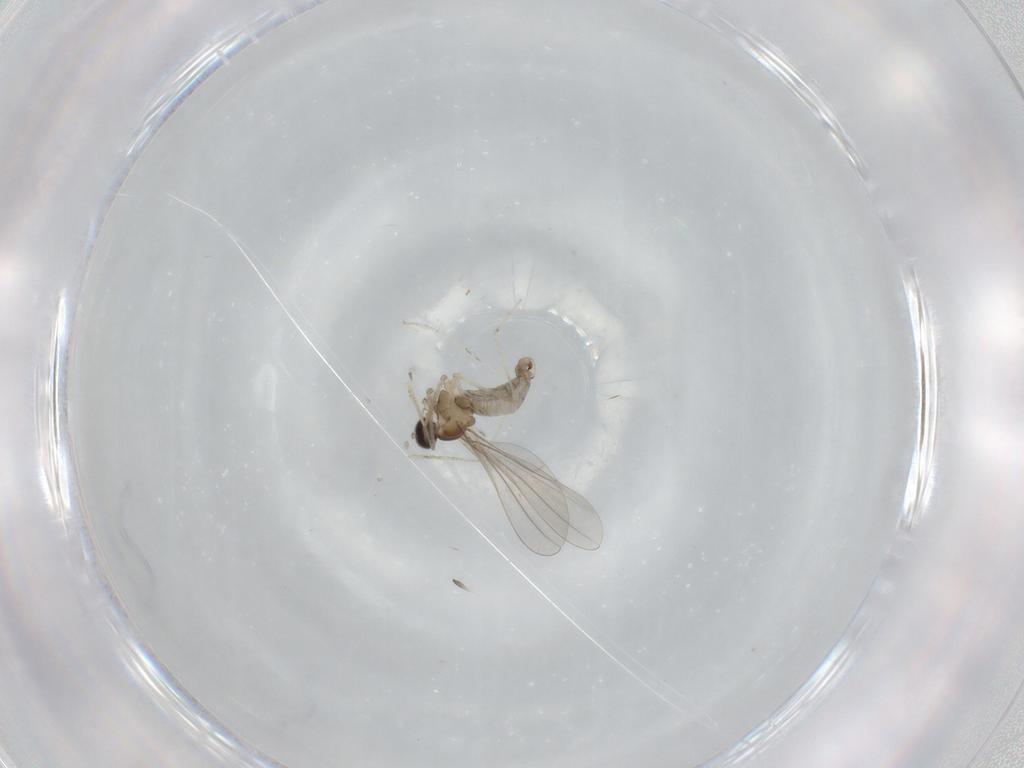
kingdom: Animalia
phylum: Arthropoda
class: Insecta
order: Diptera
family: Cecidomyiidae
